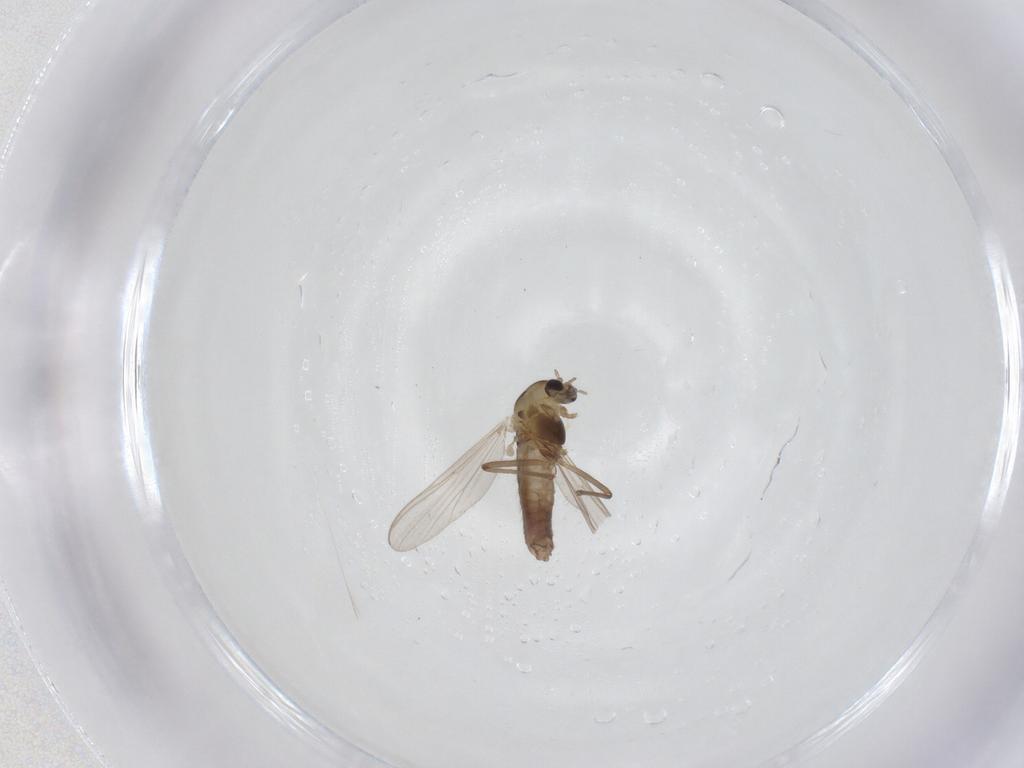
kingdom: Animalia
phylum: Arthropoda
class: Insecta
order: Diptera
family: Chironomidae
